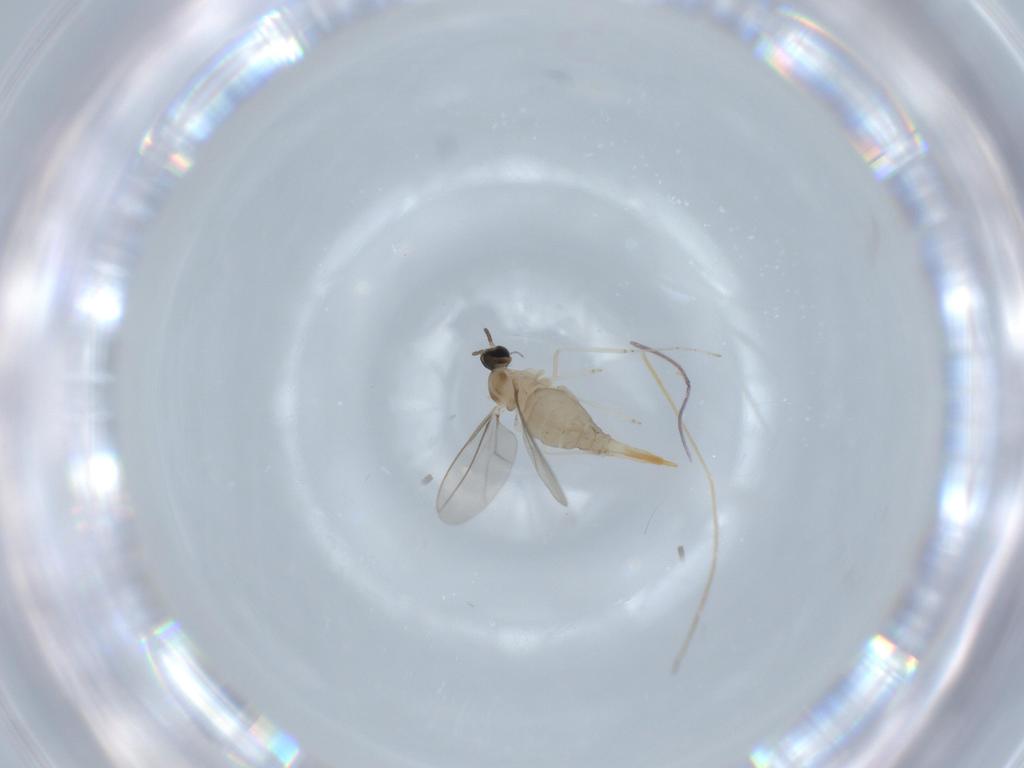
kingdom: Animalia
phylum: Arthropoda
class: Insecta
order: Diptera
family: Cecidomyiidae
